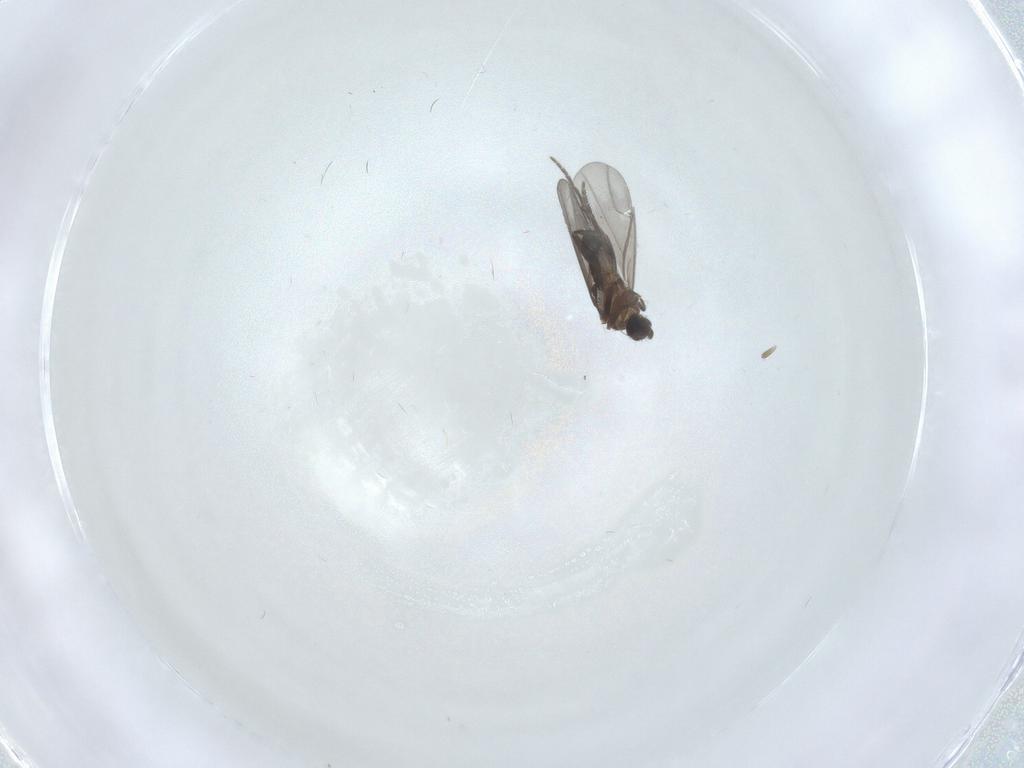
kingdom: Animalia
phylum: Arthropoda
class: Insecta
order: Diptera
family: Phoridae
